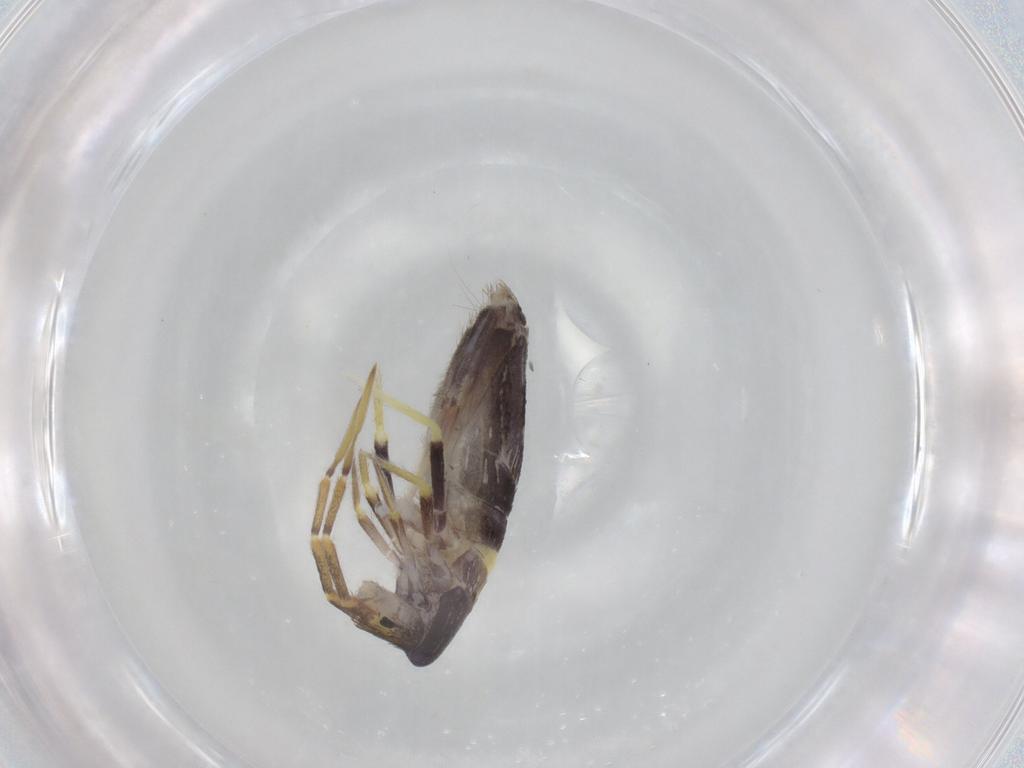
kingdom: Animalia
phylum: Arthropoda
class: Collembola
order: Entomobryomorpha
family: Entomobryidae
